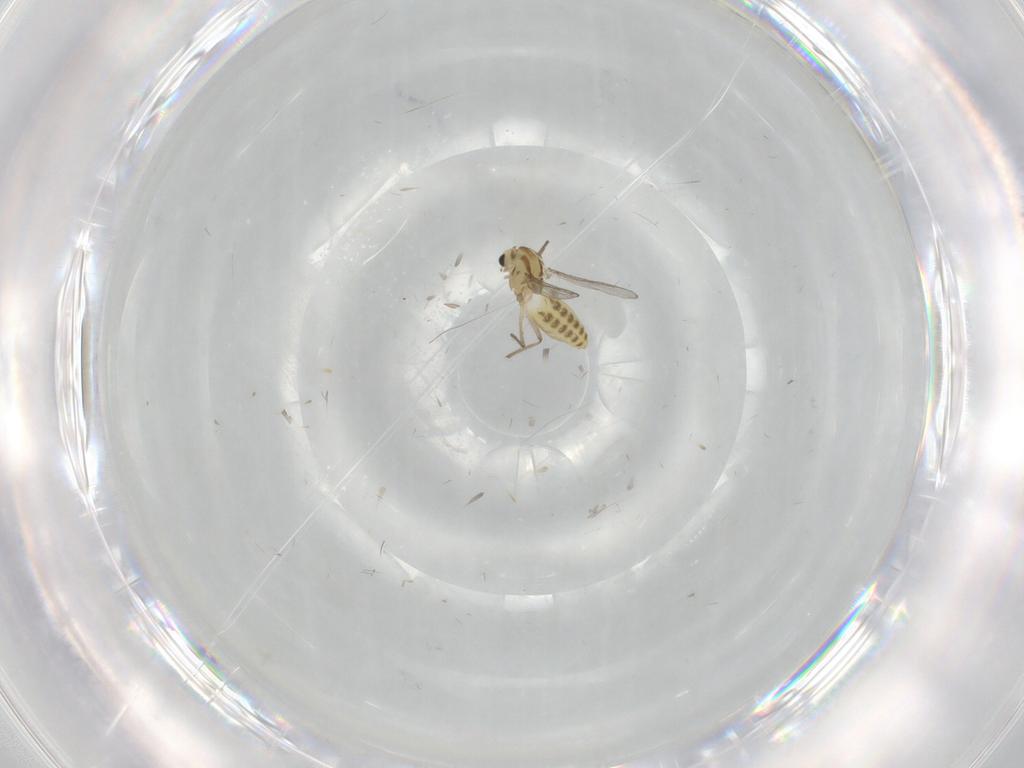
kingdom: Animalia
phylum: Arthropoda
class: Insecta
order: Diptera
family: Chironomidae
